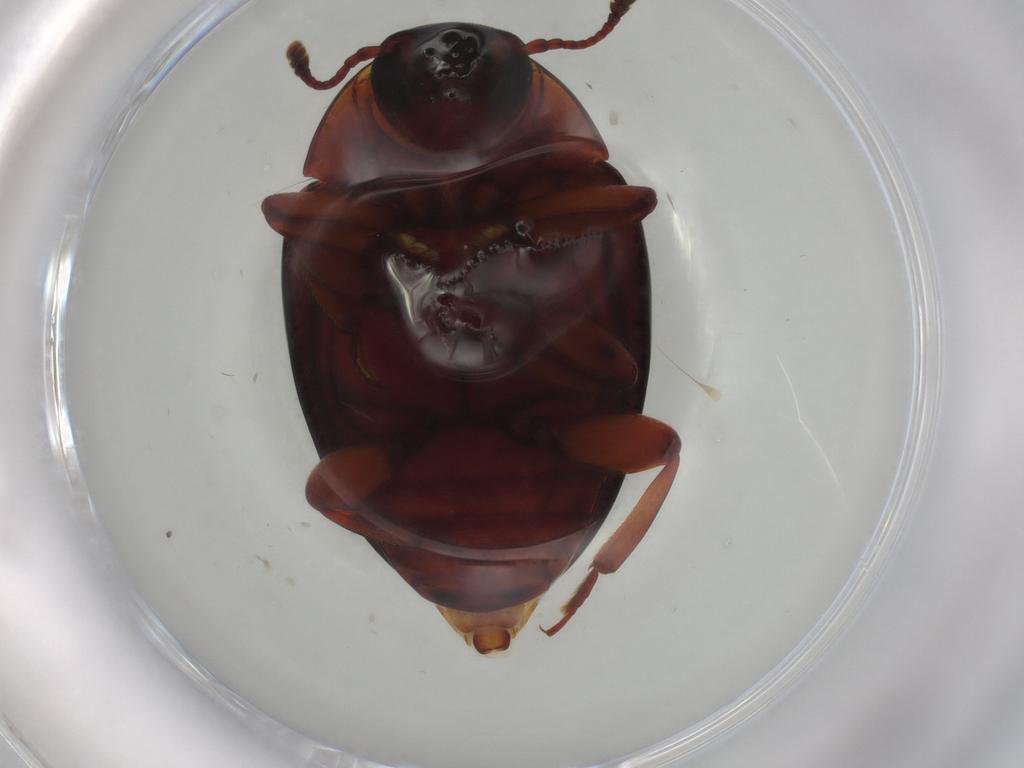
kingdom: Animalia
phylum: Arthropoda
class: Insecta
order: Coleoptera
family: Zopheridae
